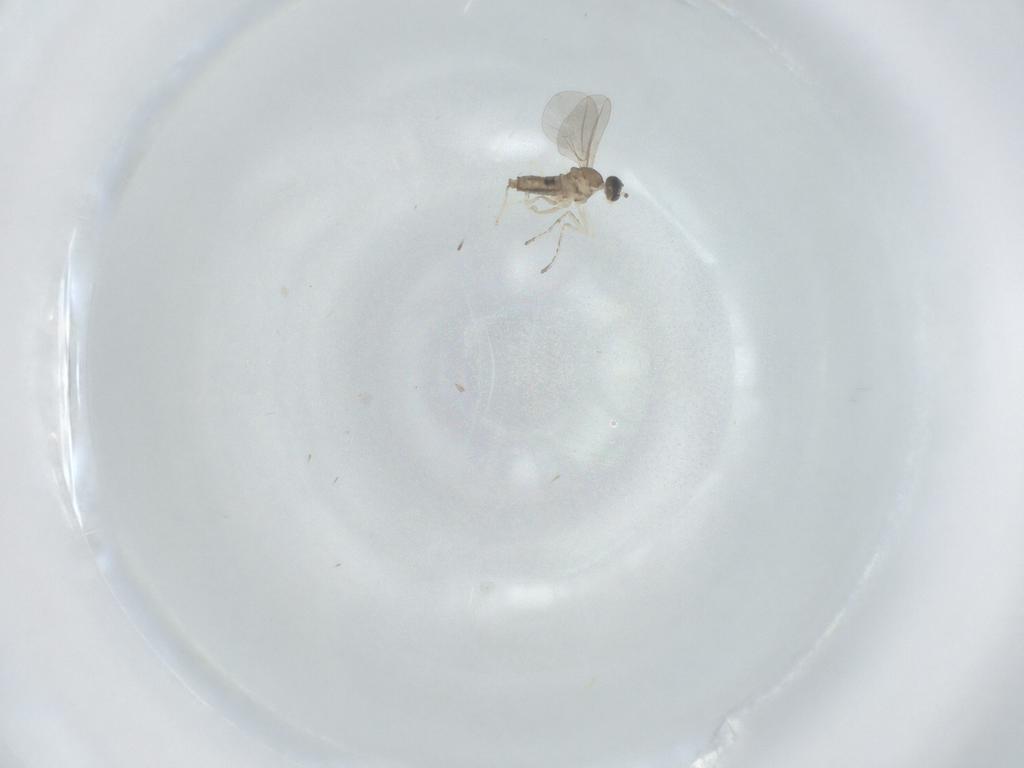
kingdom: Animalia
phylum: Arthropoda
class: Insecta
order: Diptera
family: Cecidomyiidae
